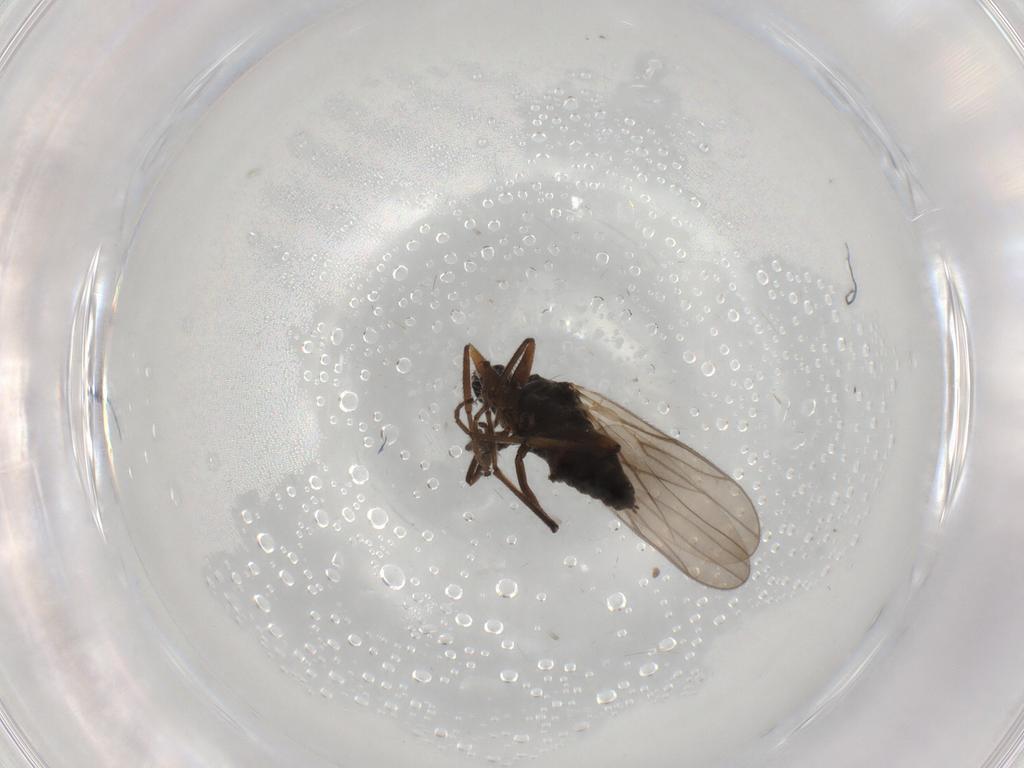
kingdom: Animalia
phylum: Arthropoda
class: Insecta
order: Diptera
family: Hybotidae
